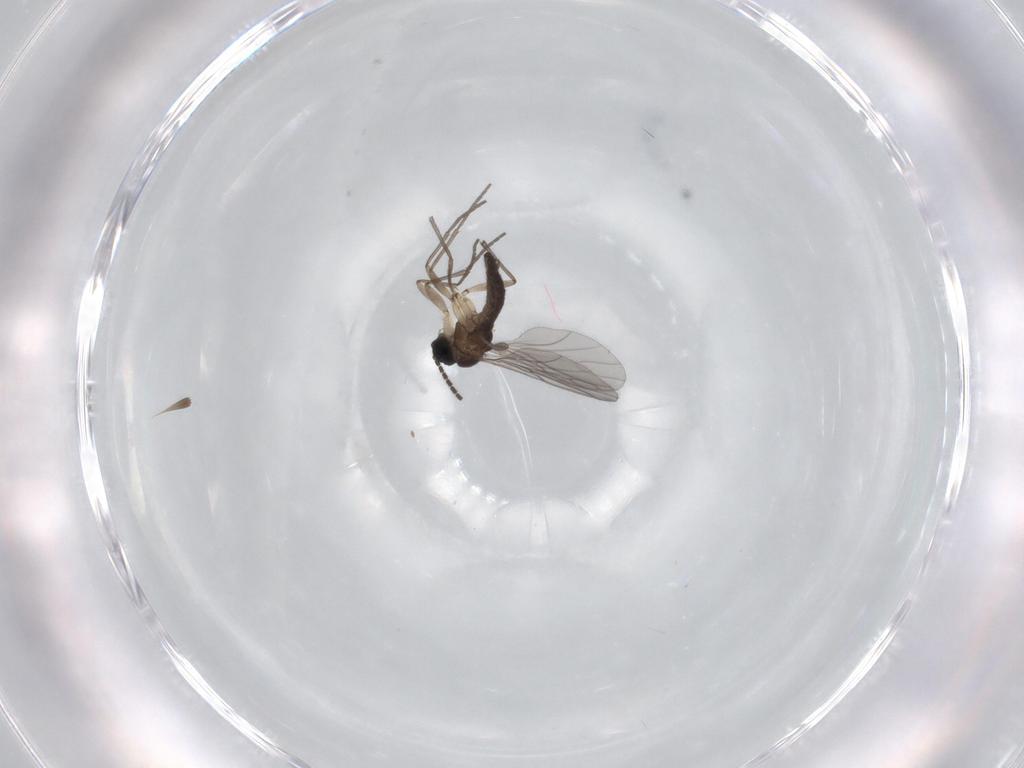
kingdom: Animalia
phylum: Arthropoda
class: Insecta
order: Diptera
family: Sciaridae
